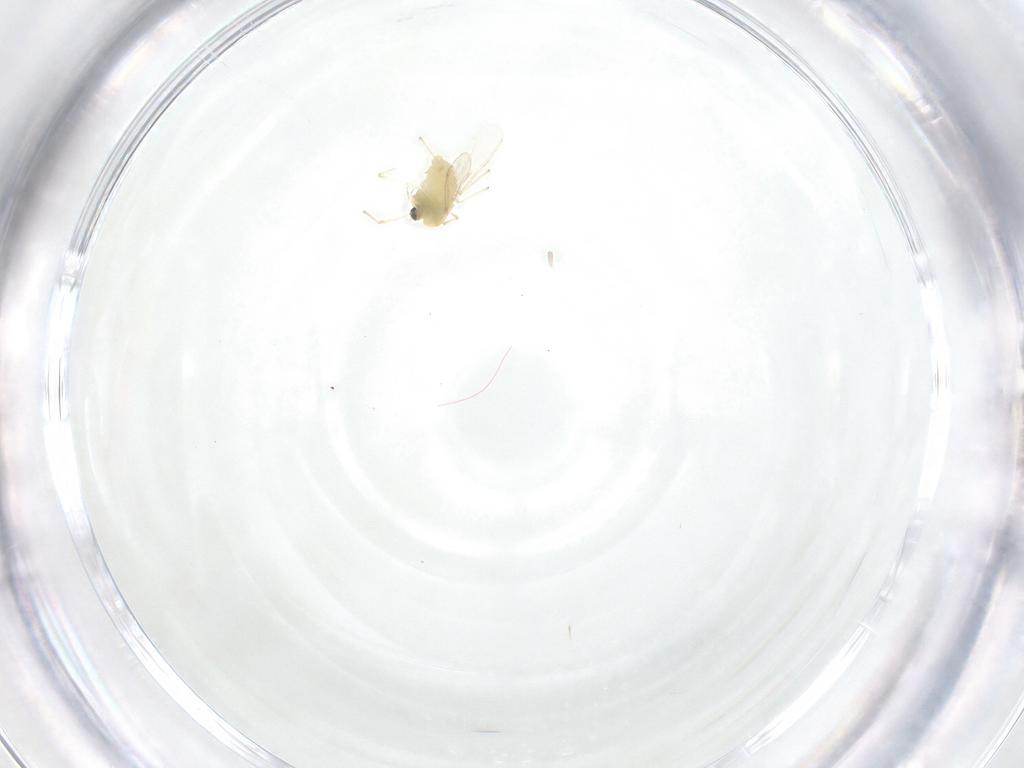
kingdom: Animalia
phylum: Arthropoda
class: Insecta
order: Diptera
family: Chironomidae
